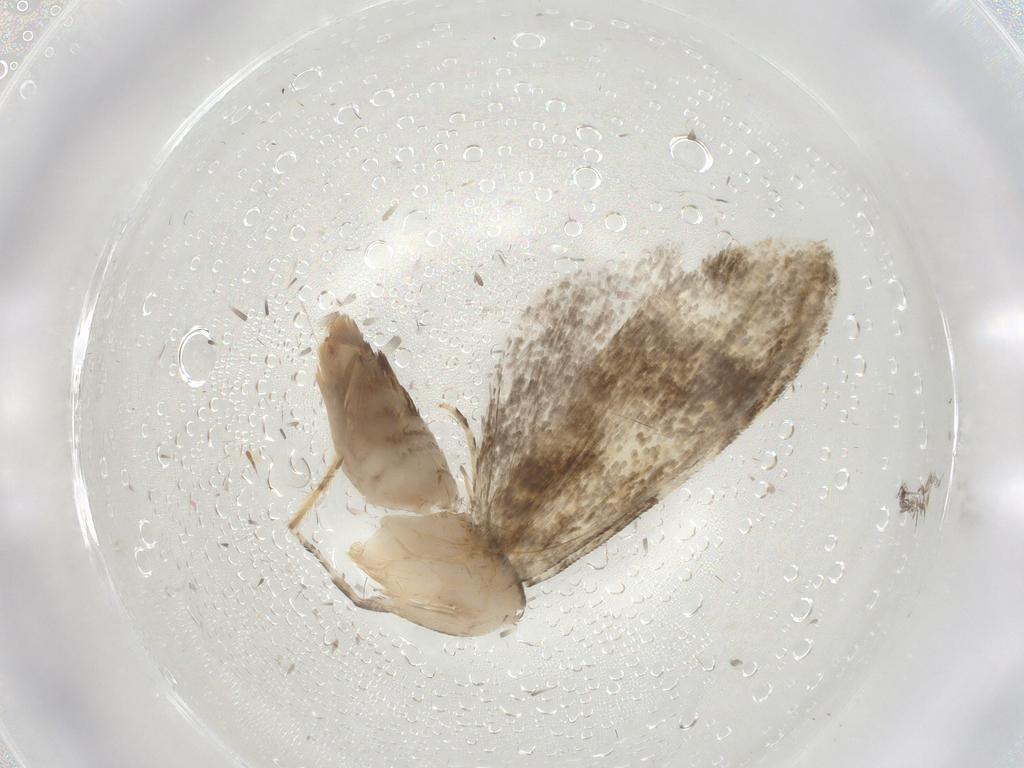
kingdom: Animalia
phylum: Arthropoda
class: Insecta
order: Lepidoptera
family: Tineidae
